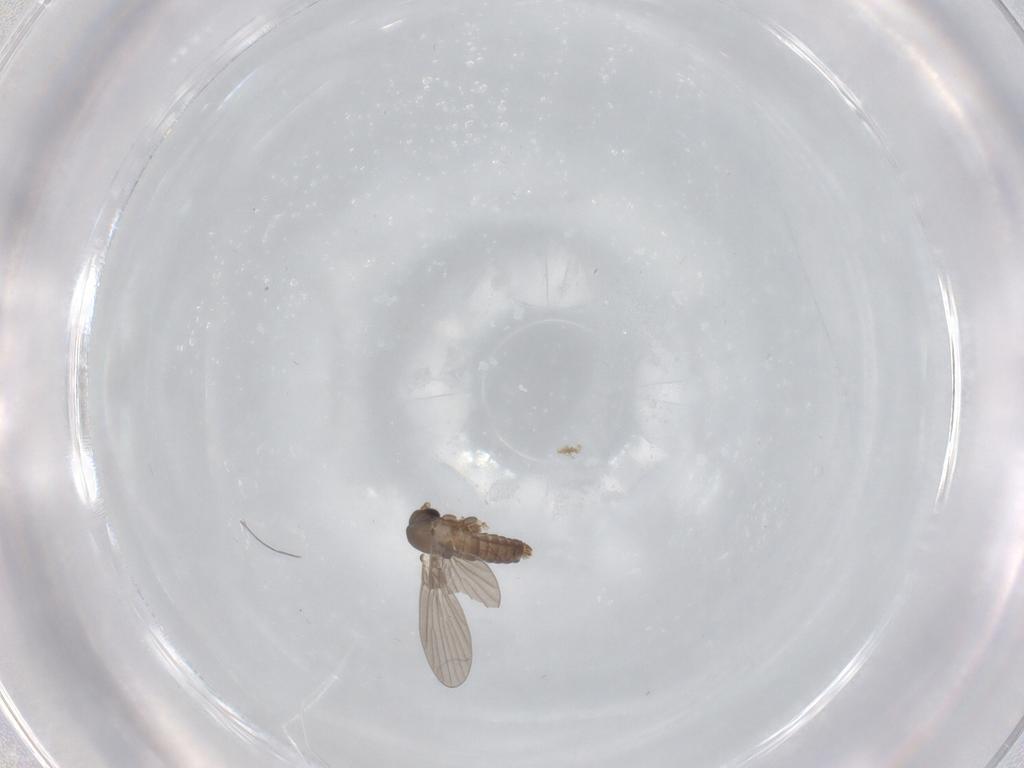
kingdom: Animalia
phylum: Arthropoda
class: Insecta
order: Diptera
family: Psychodidae
